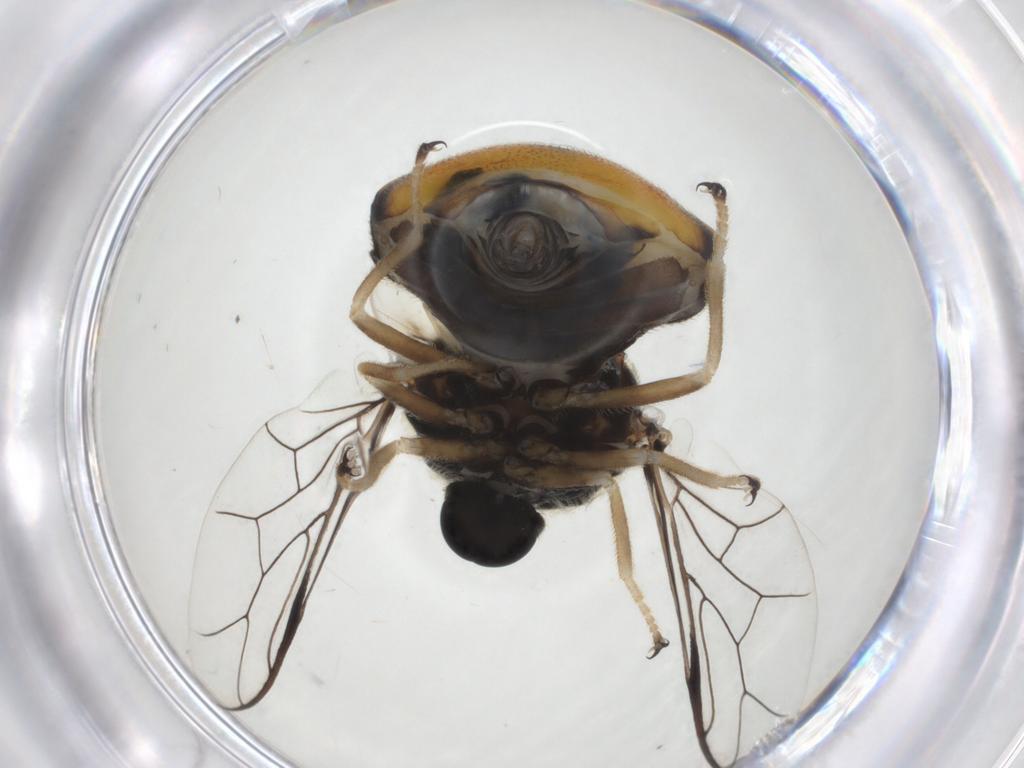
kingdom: Animalia
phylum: Arthropoda
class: Insecta
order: Diptera
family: Acroceridae
